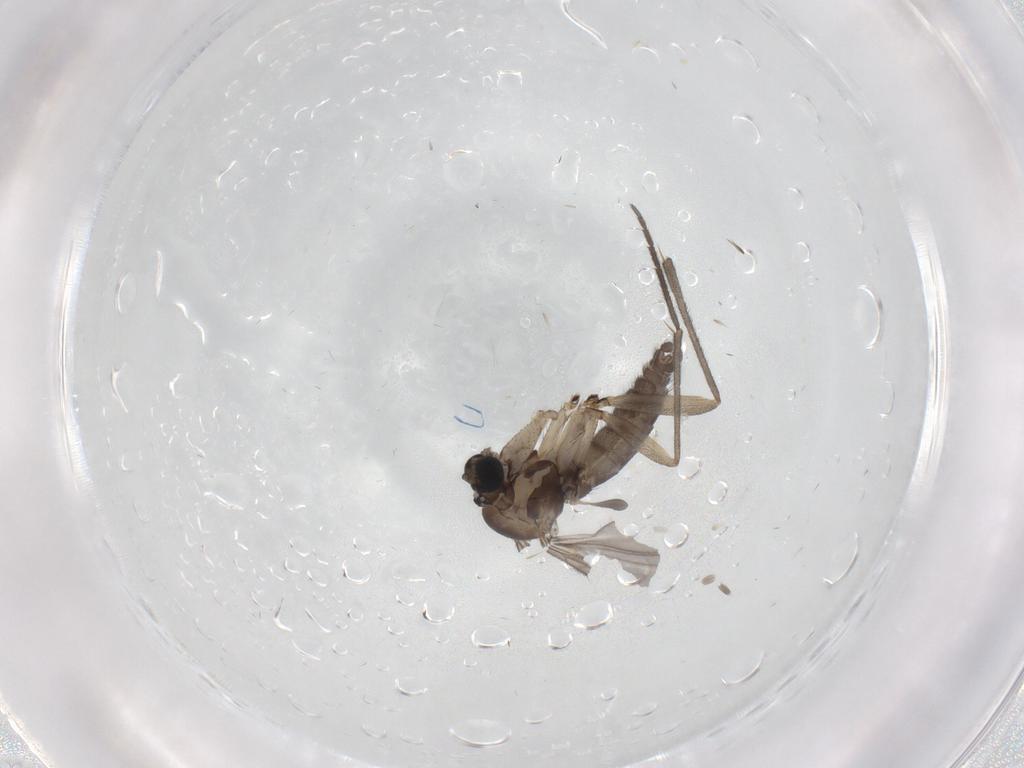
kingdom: Animalia
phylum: Arthropoda
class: Insecta
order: Diptera
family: Sciaridae
